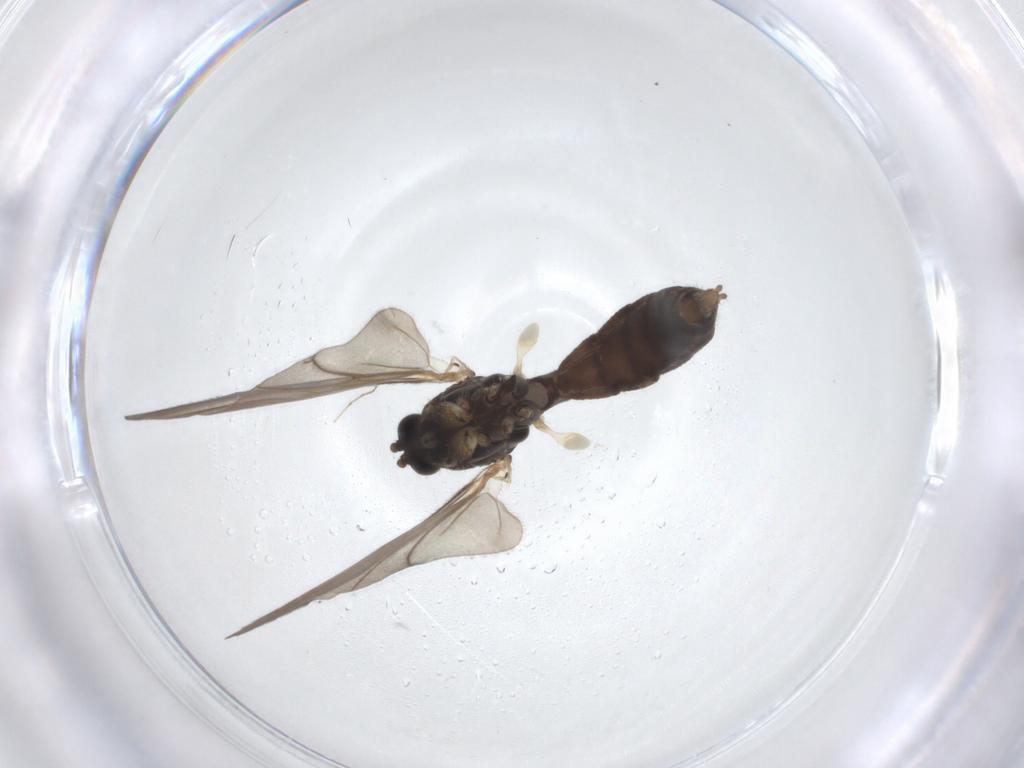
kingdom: Animalia
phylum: Arthropoda
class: Insecta
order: Diptera
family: Mycetophilidae
